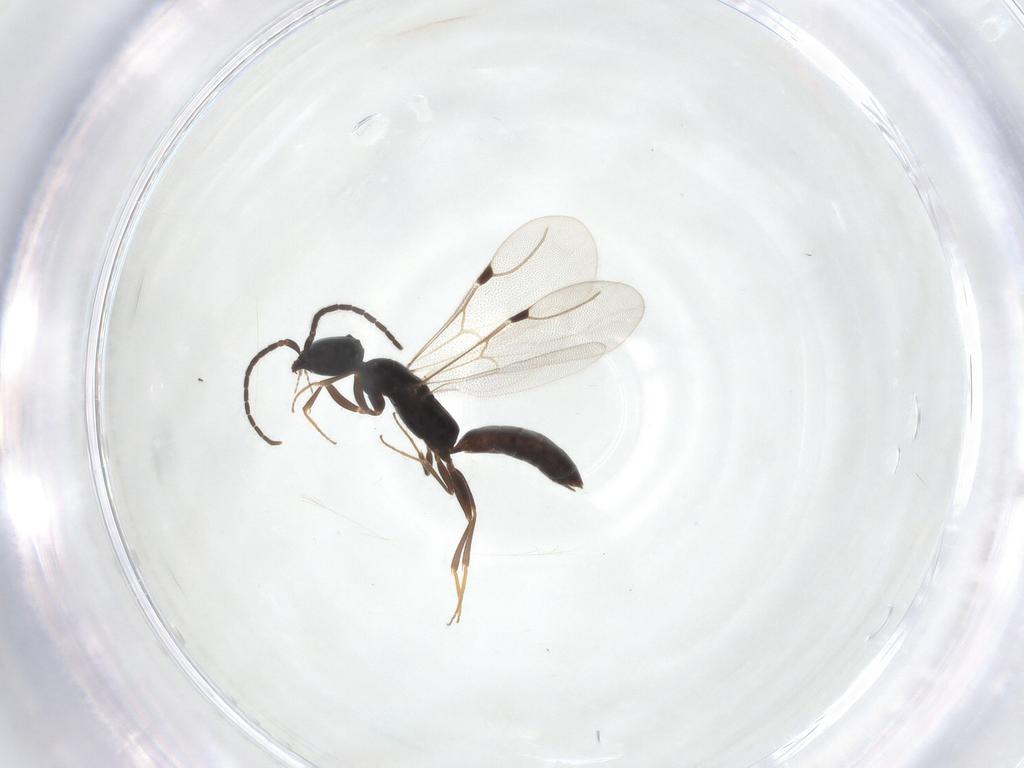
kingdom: Animalia
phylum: Arthropoda
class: Insecta
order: Hymenoptera
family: Bethylidae
